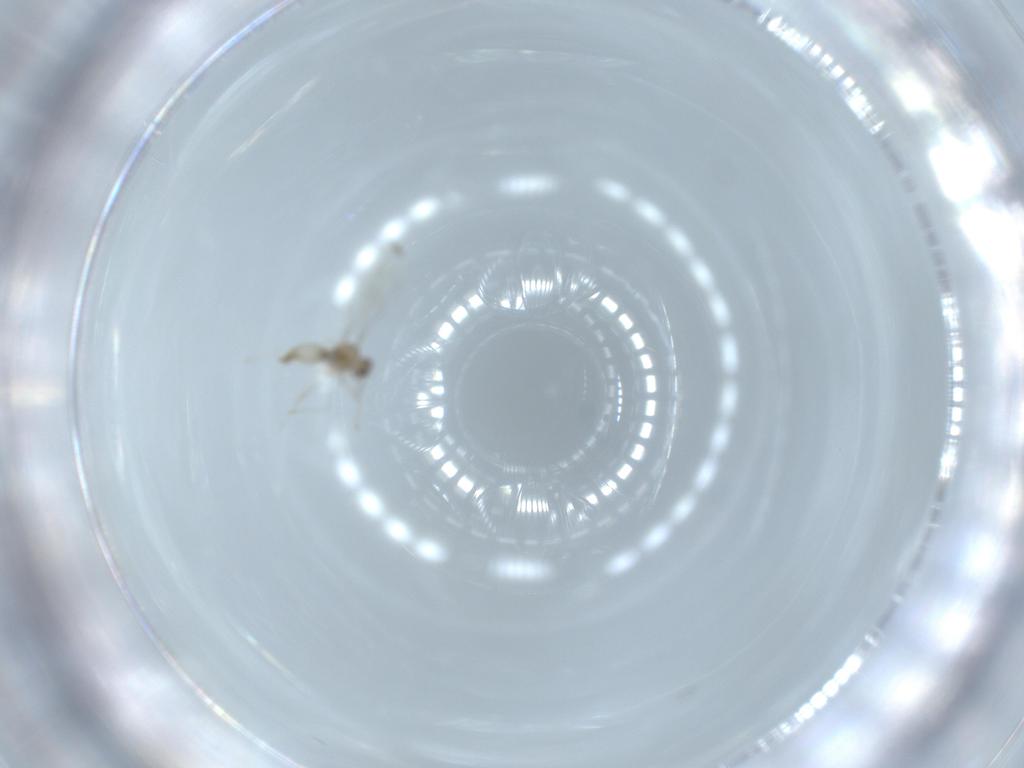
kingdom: Animalia
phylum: Arthropoda
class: Insecta
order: Diptera
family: Cecidomyiidae
